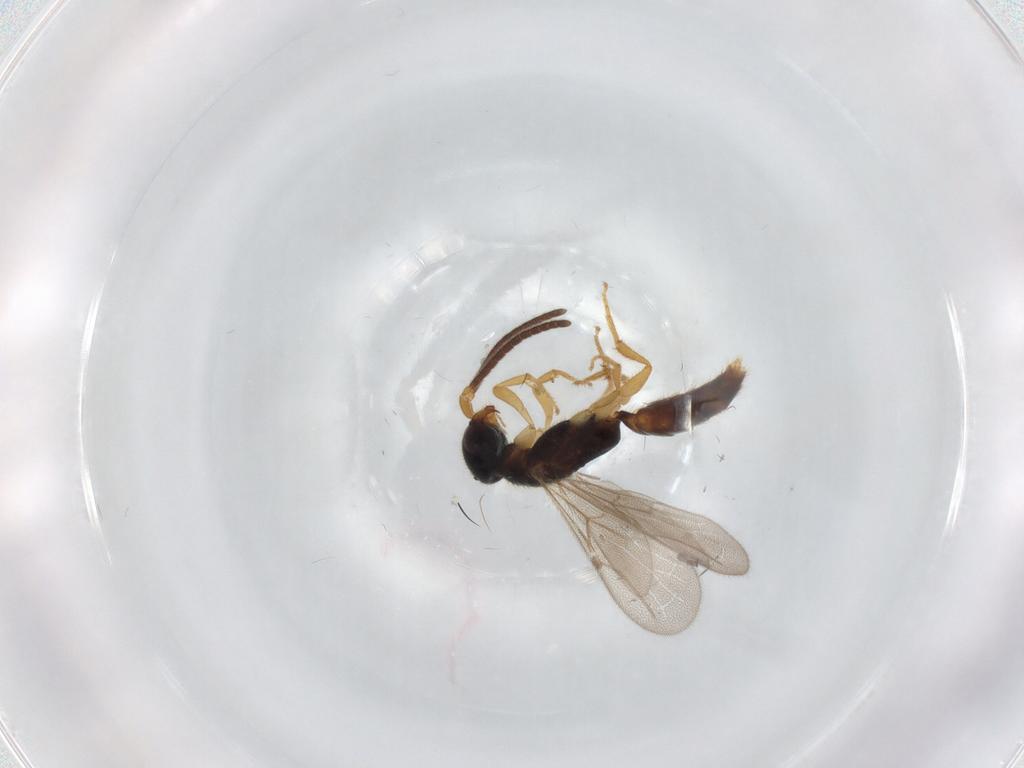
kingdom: Animalia
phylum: Arthropoda
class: Insecta
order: Hymenoptera
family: Bethylidae
